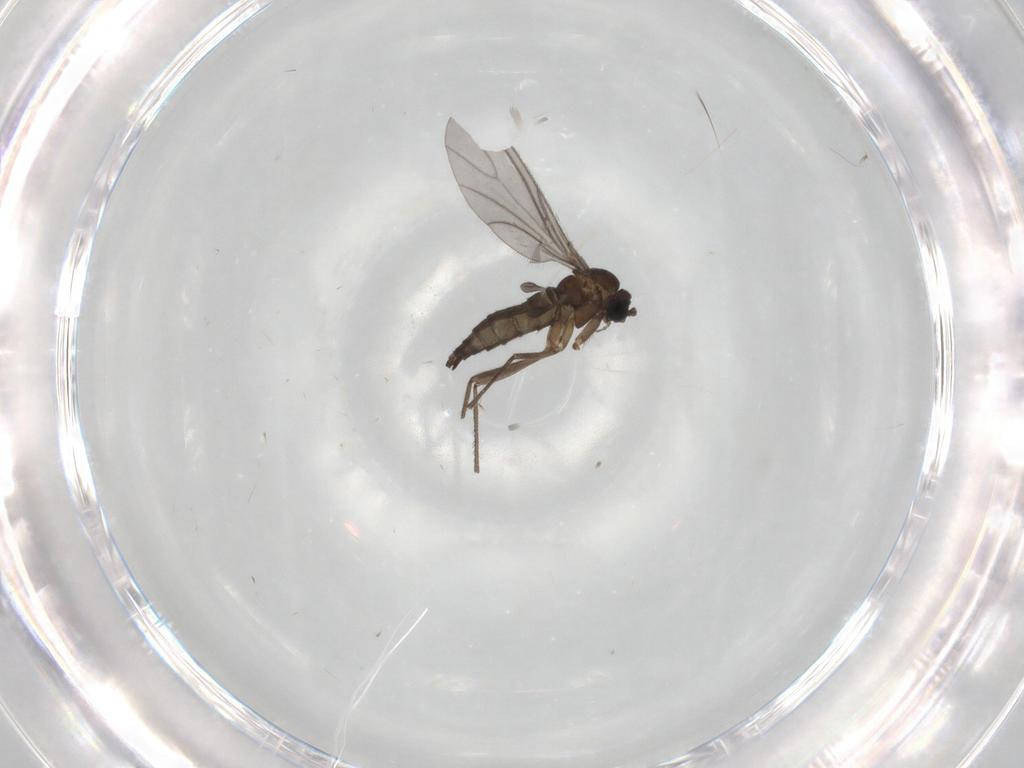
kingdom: Animalia
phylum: Arthropoda
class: Insecta
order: Diptera
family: Sciaridae
